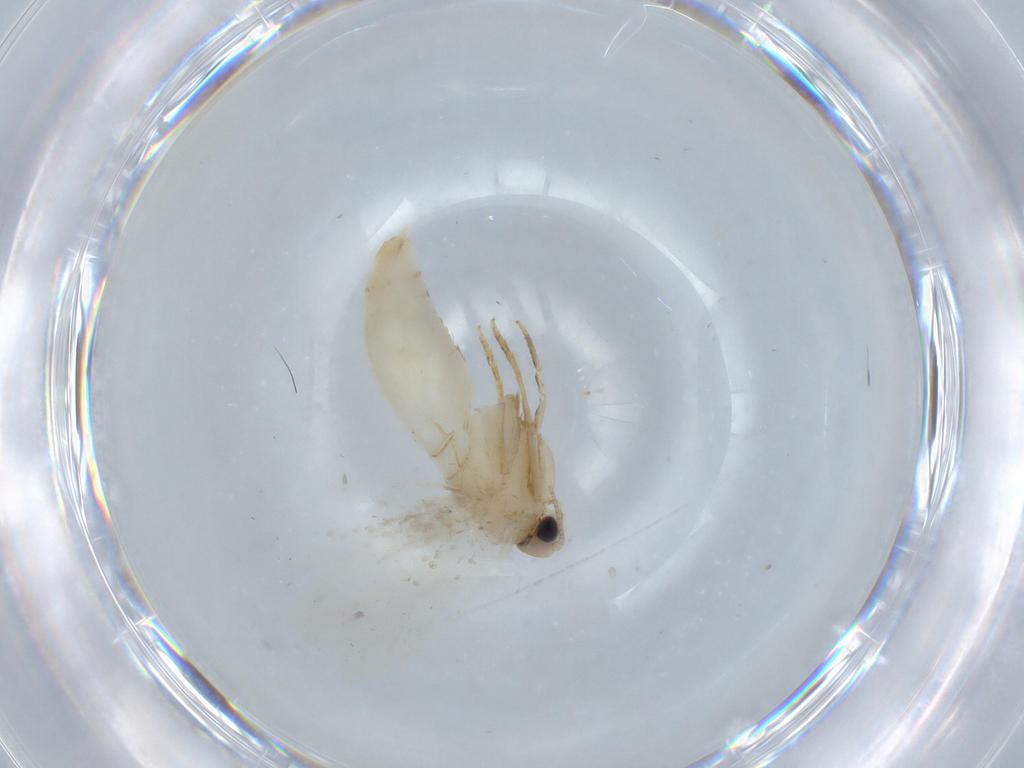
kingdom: Animalia
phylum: Arthropoda
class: Insecta
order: Lepidoptera
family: Tineidae
